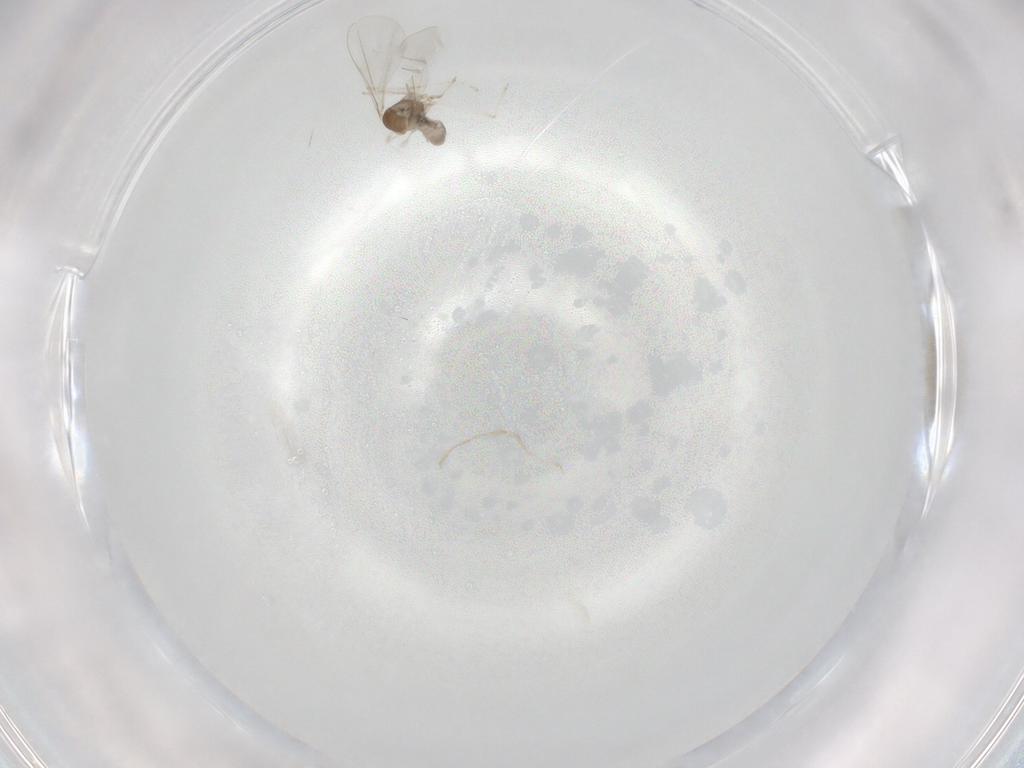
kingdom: Animalia
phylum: Arthropoda
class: Insecta
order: Diptera
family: Cecidomyiidae
